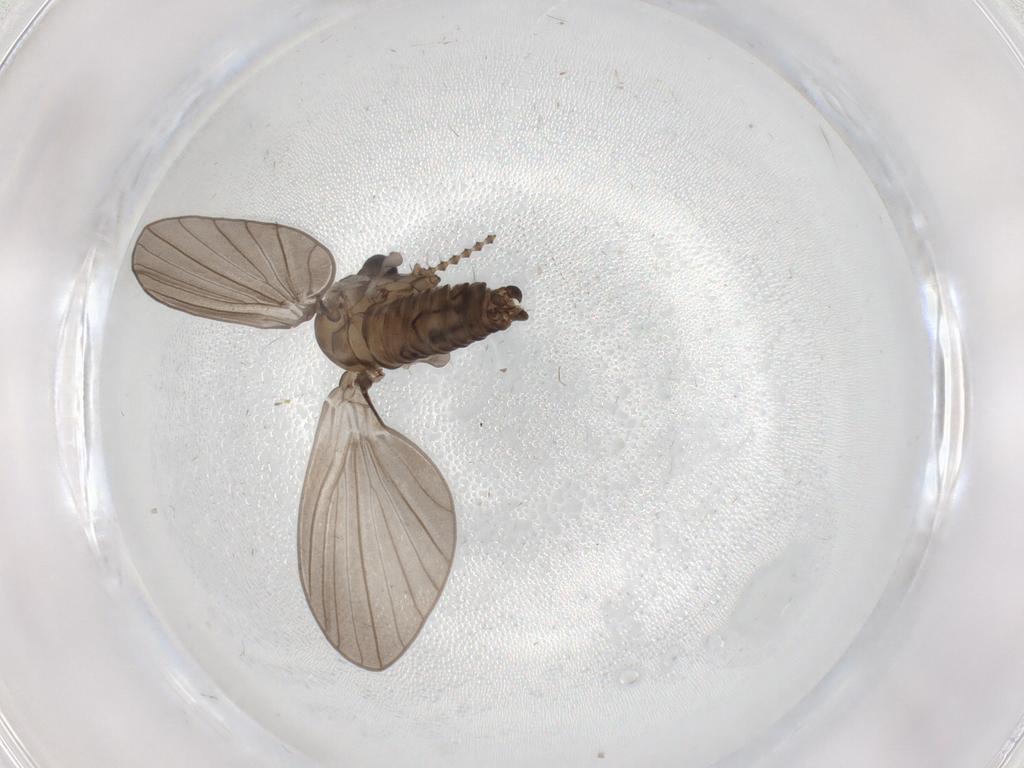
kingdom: Animalia
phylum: Arthropoda
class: Insecta
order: Diptera
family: Psychodidae
